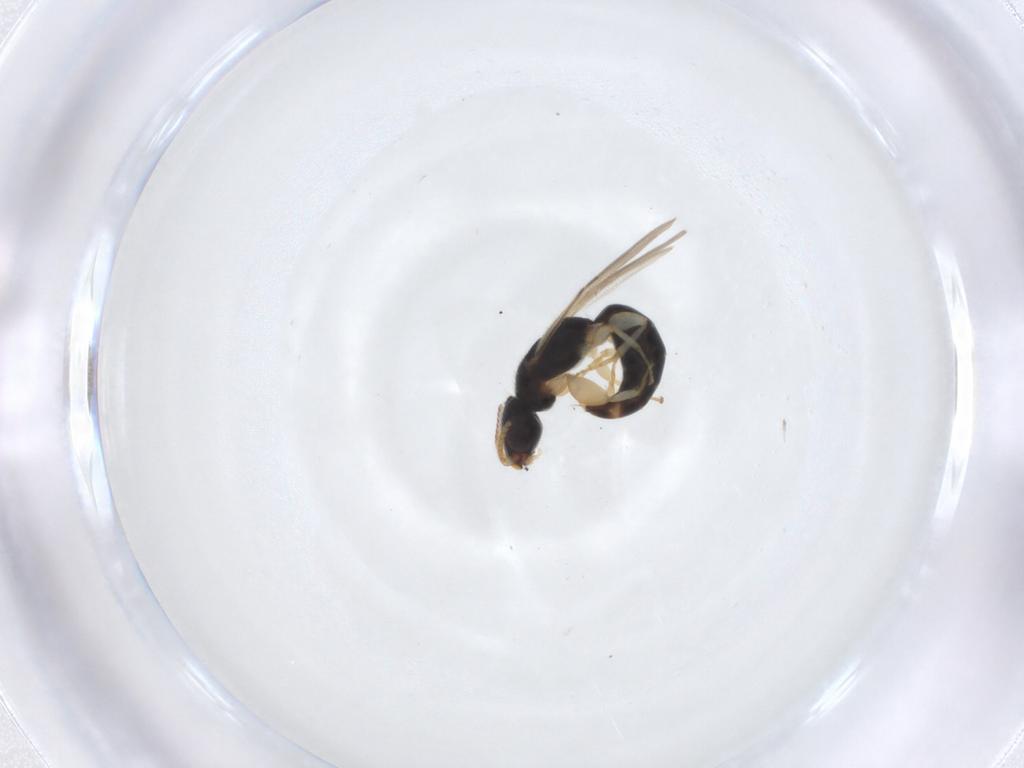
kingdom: Animalia
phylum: Arthropoda
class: Insecta
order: Hymenoptera
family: Bethylidae
